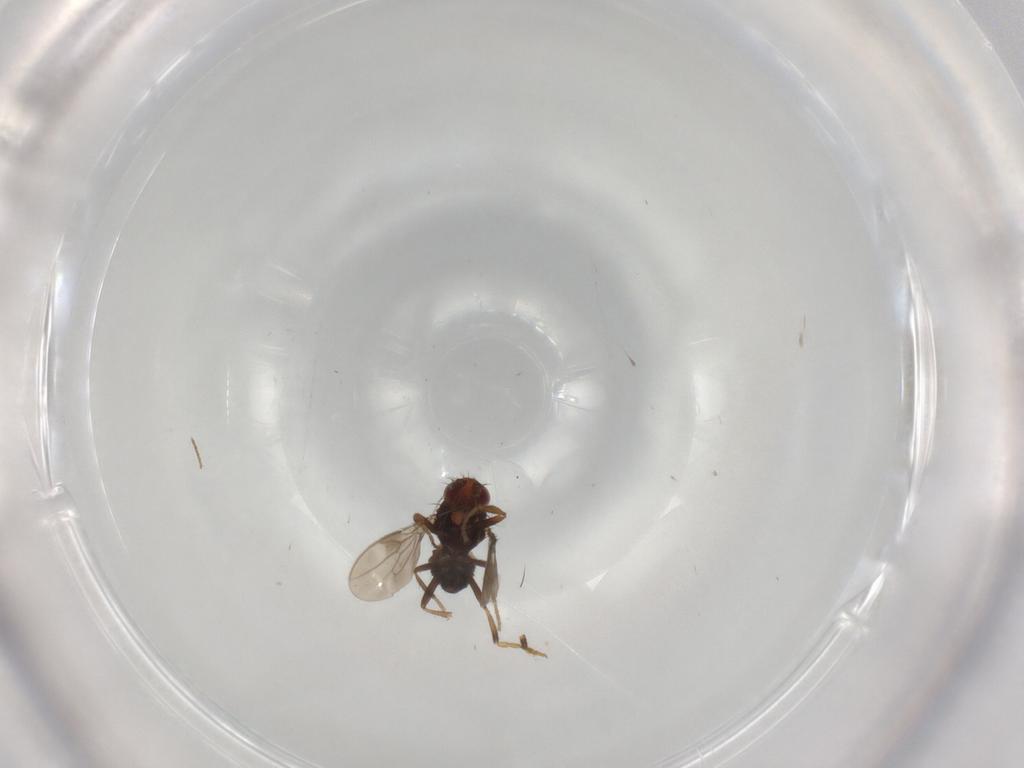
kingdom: Animalia
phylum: Arthropoda
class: Insecta
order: Diptera
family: Sphaeroceridae
